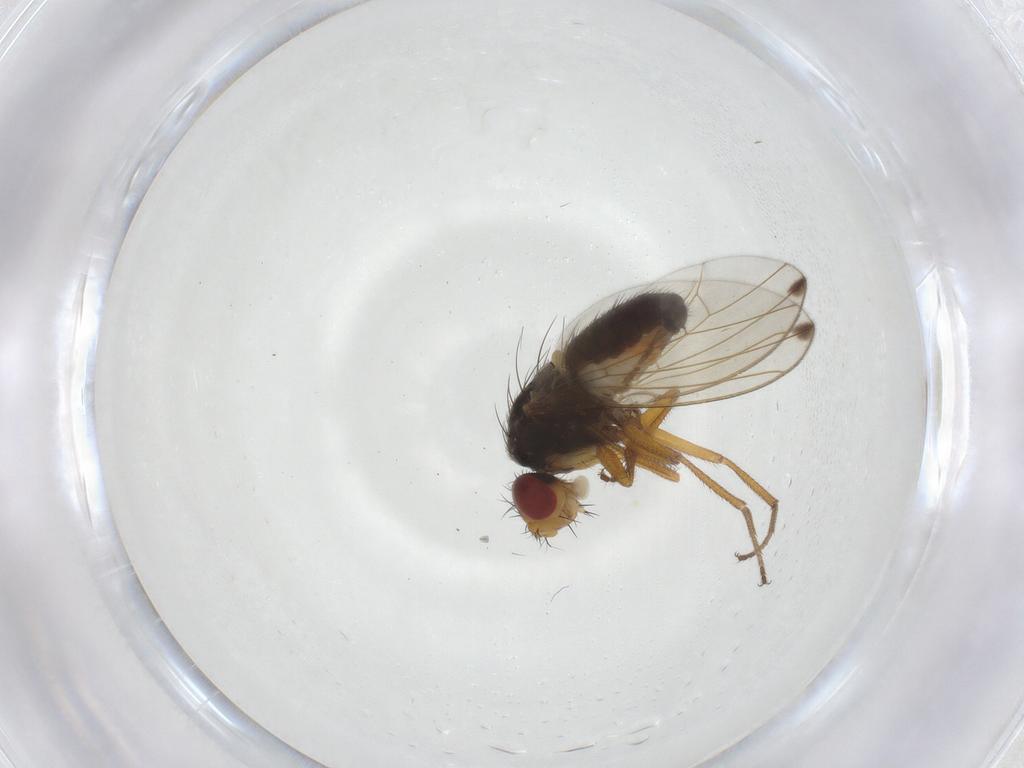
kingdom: Animalia
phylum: Arthropoda
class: Insecta
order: Diptera
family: Drosophilidae
